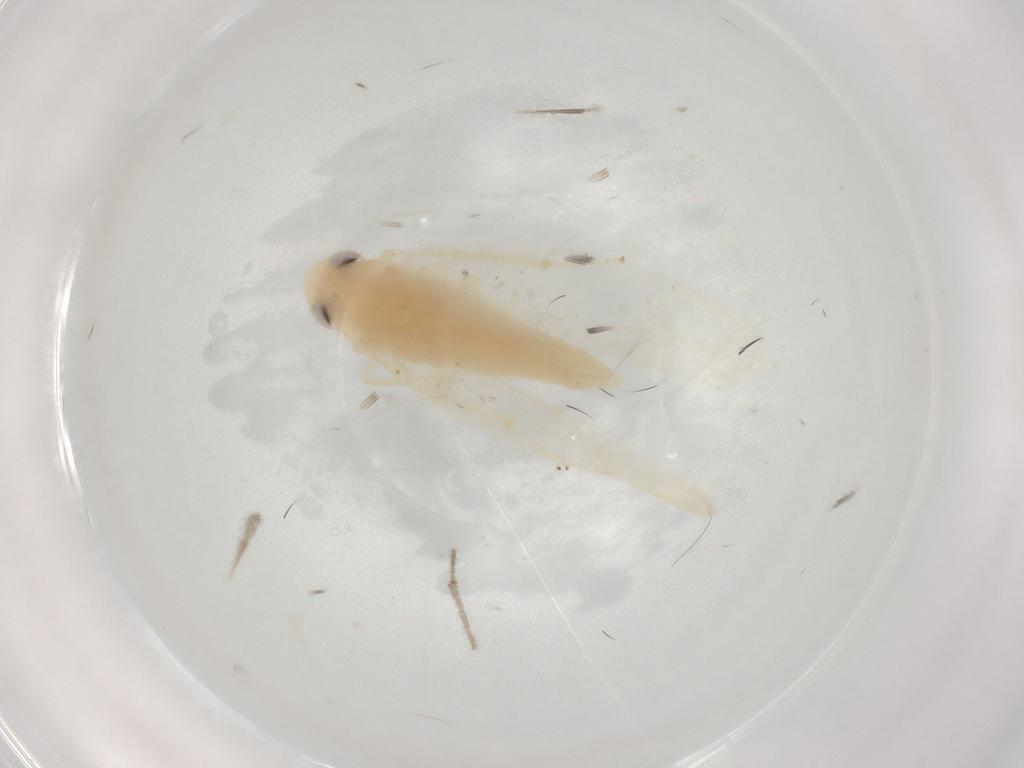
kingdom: Animalia
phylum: Arthropoda
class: Insecta
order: Hemiptera
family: Cicadellidae
